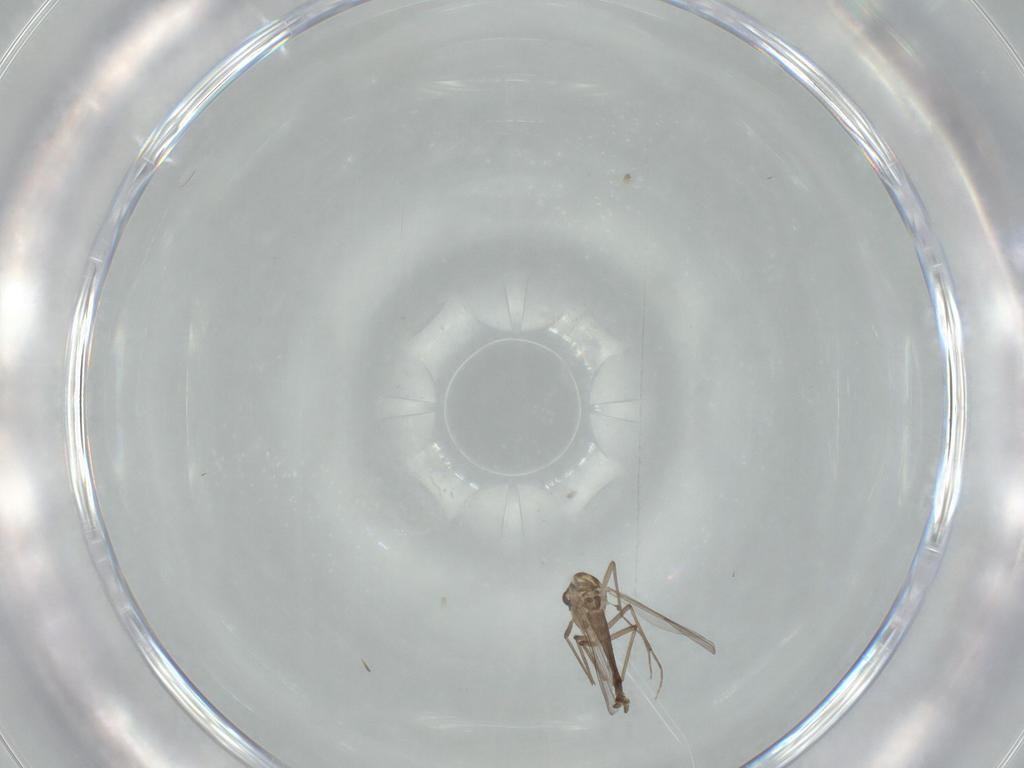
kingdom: Animalia
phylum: Arthropoda
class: Insecta
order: Diptera
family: Chironomidae
